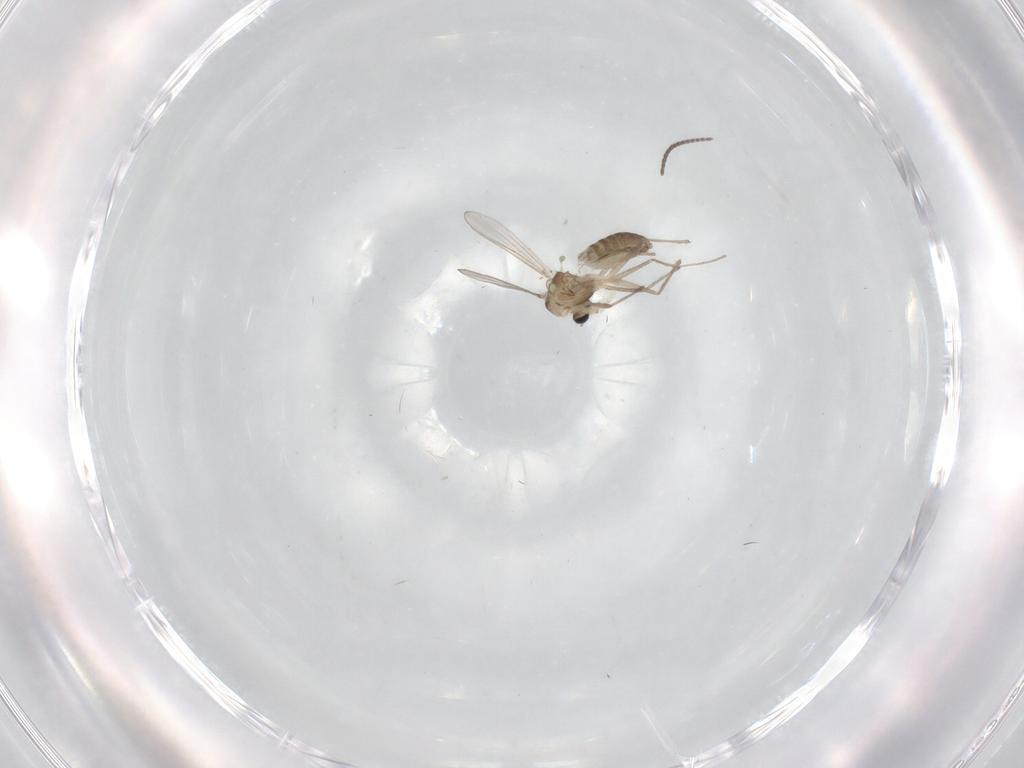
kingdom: Animalia
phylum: Arthropoda
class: Insecta
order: Diptera
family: Chironomidae
